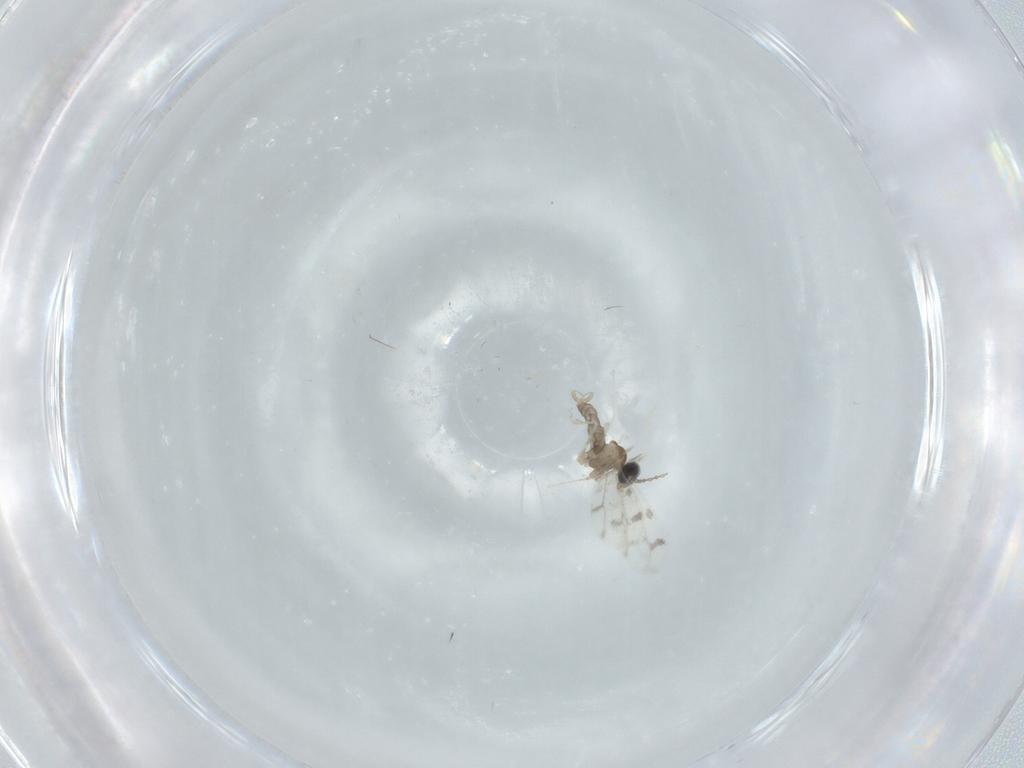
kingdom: Animalia
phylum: Arthropoda
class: Insecta
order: Diptera
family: Cecidomyiidae
